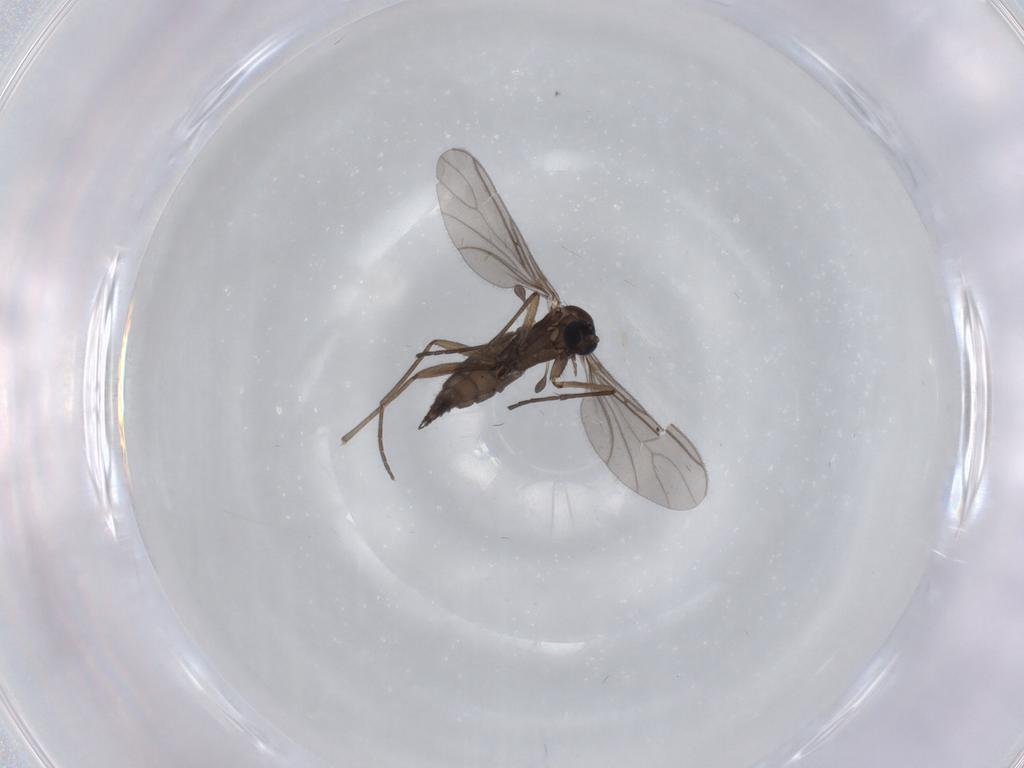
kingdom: Animalia
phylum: Arthropoda
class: Insecta
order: Diptera
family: Sciaridae
